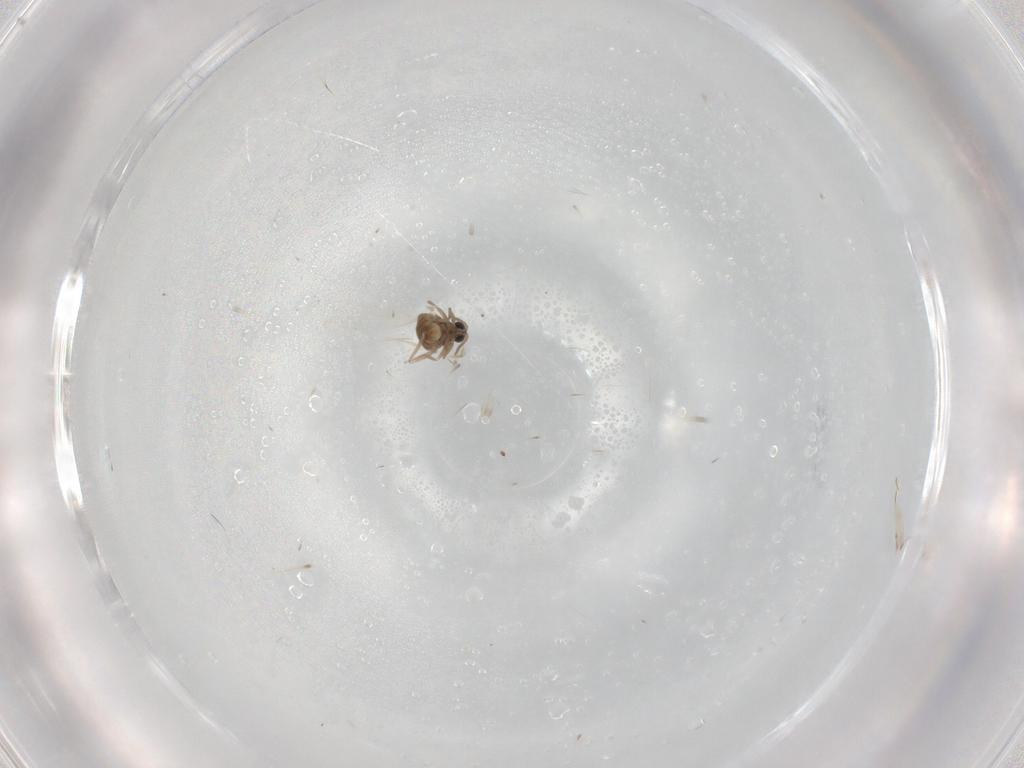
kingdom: Animalia
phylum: Arthropoda
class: Insecta
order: Diptera
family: Cecidomyiidae
